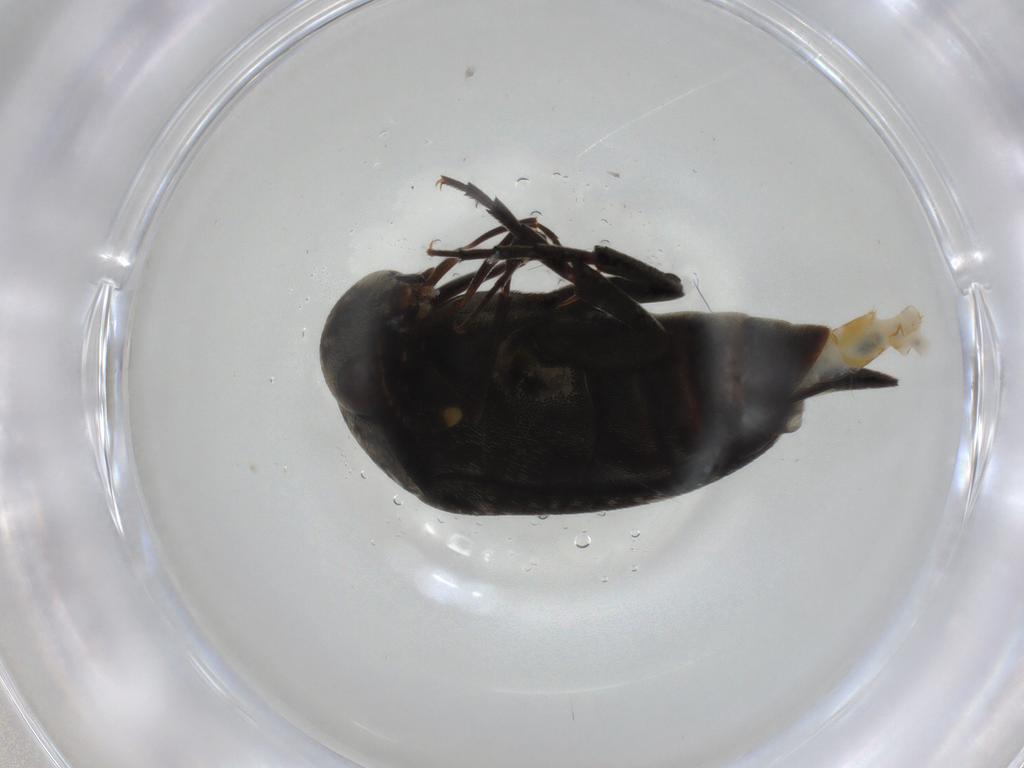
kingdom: Animalia
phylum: Arthropoda
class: Insecta
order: Coleoptera
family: Mordellidae
